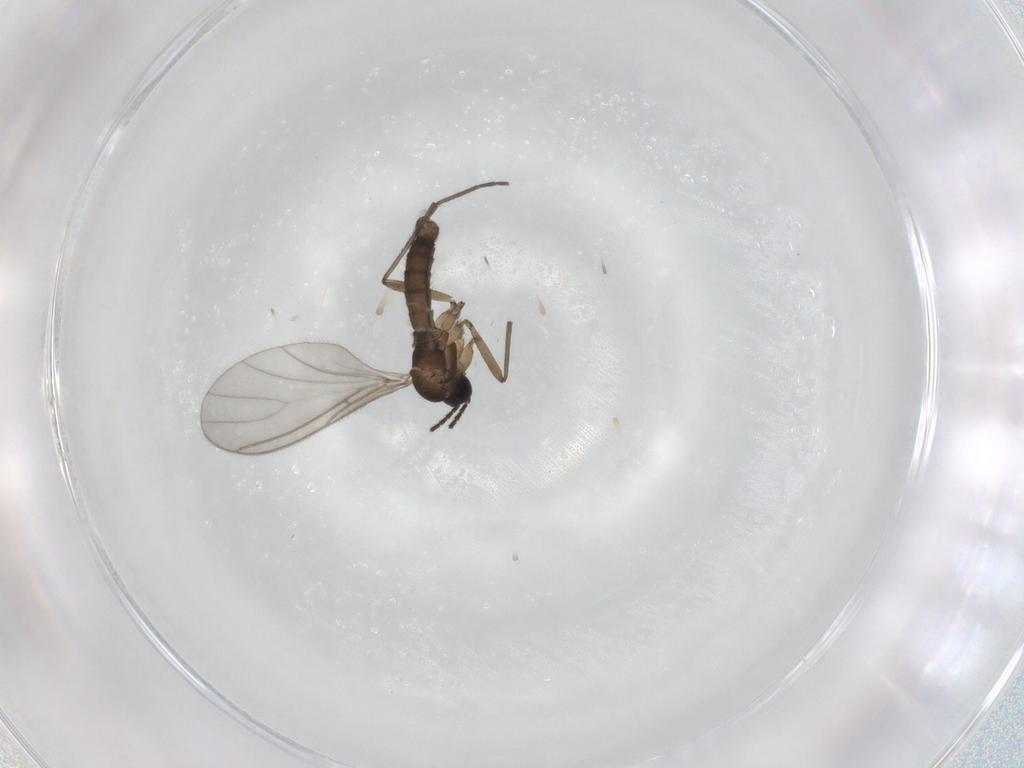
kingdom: Animalia
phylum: Arthropoda
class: Insecta
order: Diptera
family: Sciaridae
